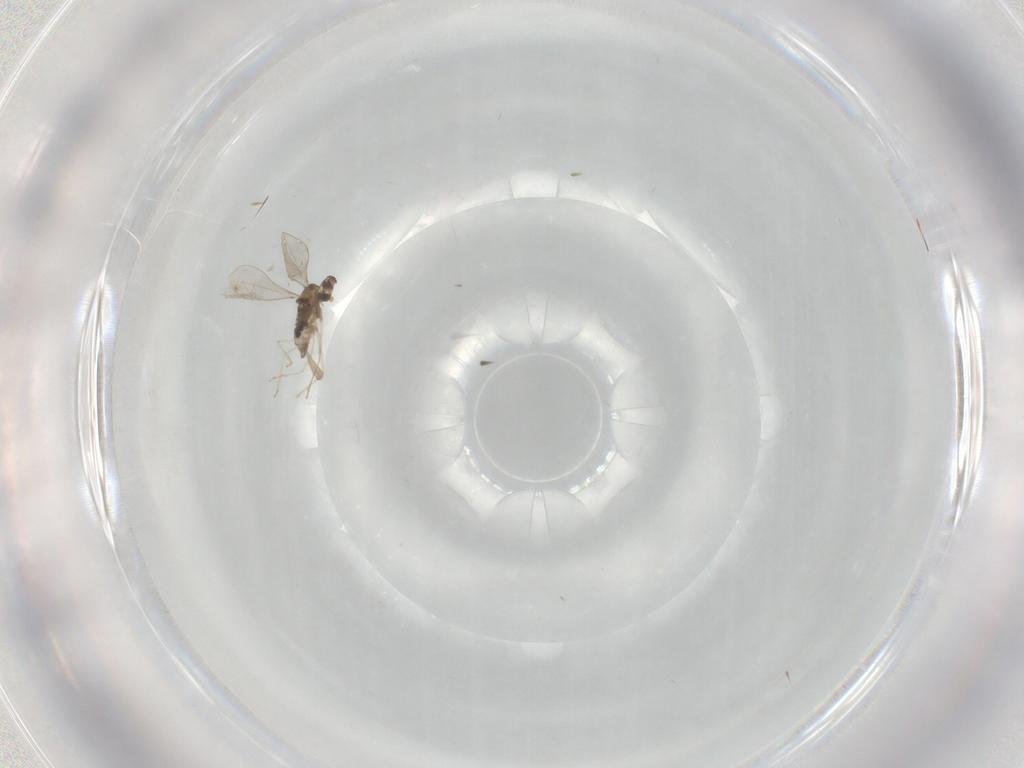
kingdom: Animalia
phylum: Arthropoda
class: Insecta
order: Diptera
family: Cecidomyiidae
